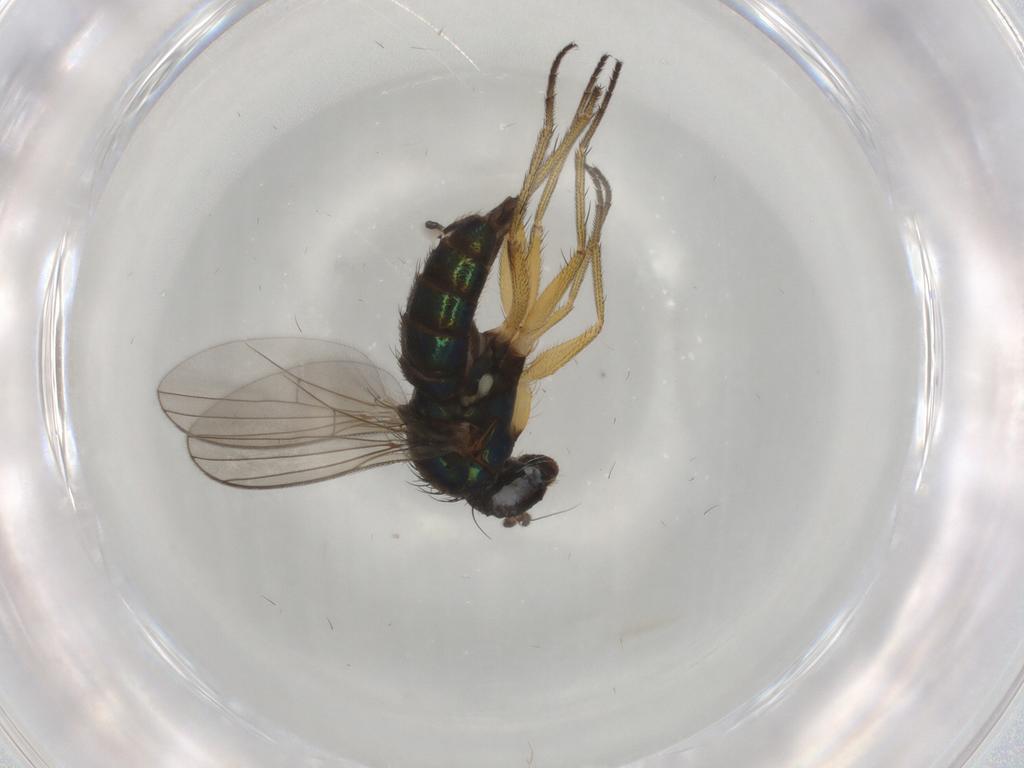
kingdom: Animalia
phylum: Arthropoda
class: Insecta
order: Diptera
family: Dolichopodidae
